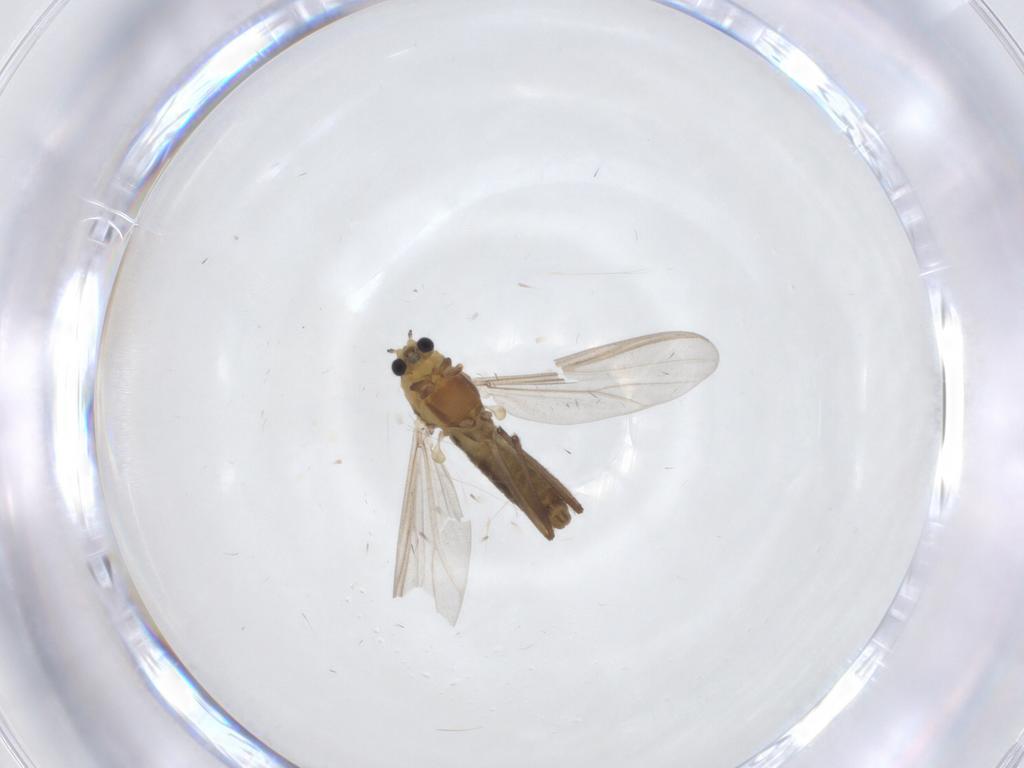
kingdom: Animalia
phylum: Arthropoda
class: Insecta
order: Diptera
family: Chironomidae
